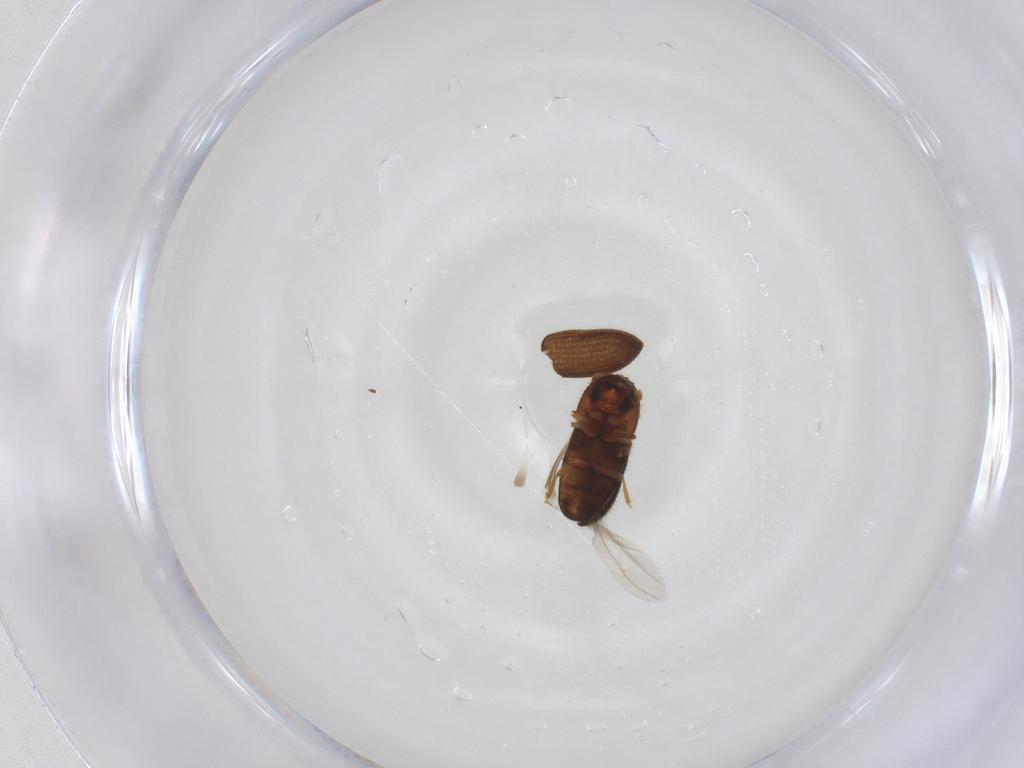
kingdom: Animalia
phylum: Arthropoda
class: Insecta
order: Coleoptera
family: Curculionidae
